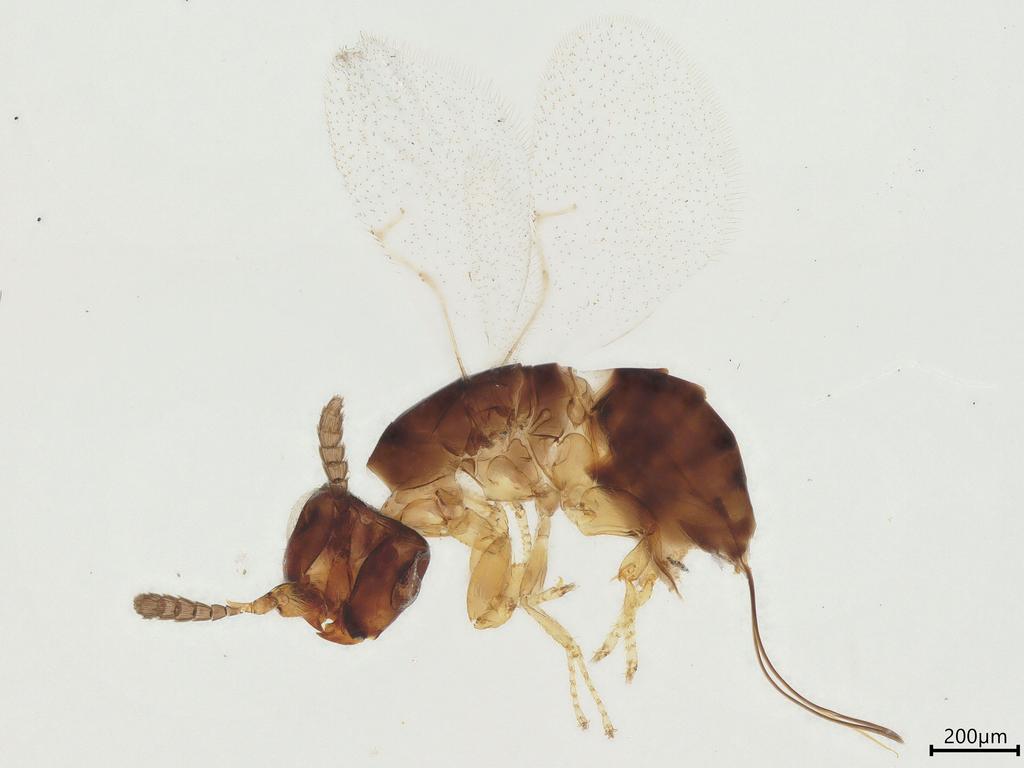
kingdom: Animalia
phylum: Arthropoda
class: Insecta
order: Hymenoptera
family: Agaonidae
